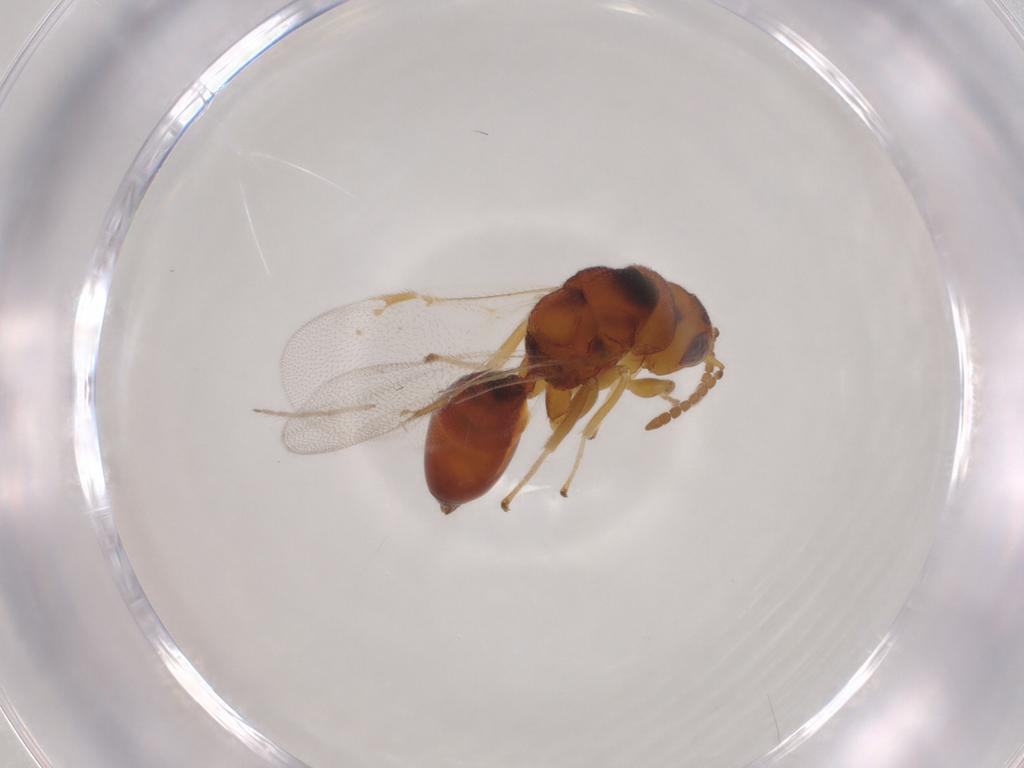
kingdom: Animalia
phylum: Arthropoda
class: Insecta
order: Hymenoptera
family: Eurytomidae
